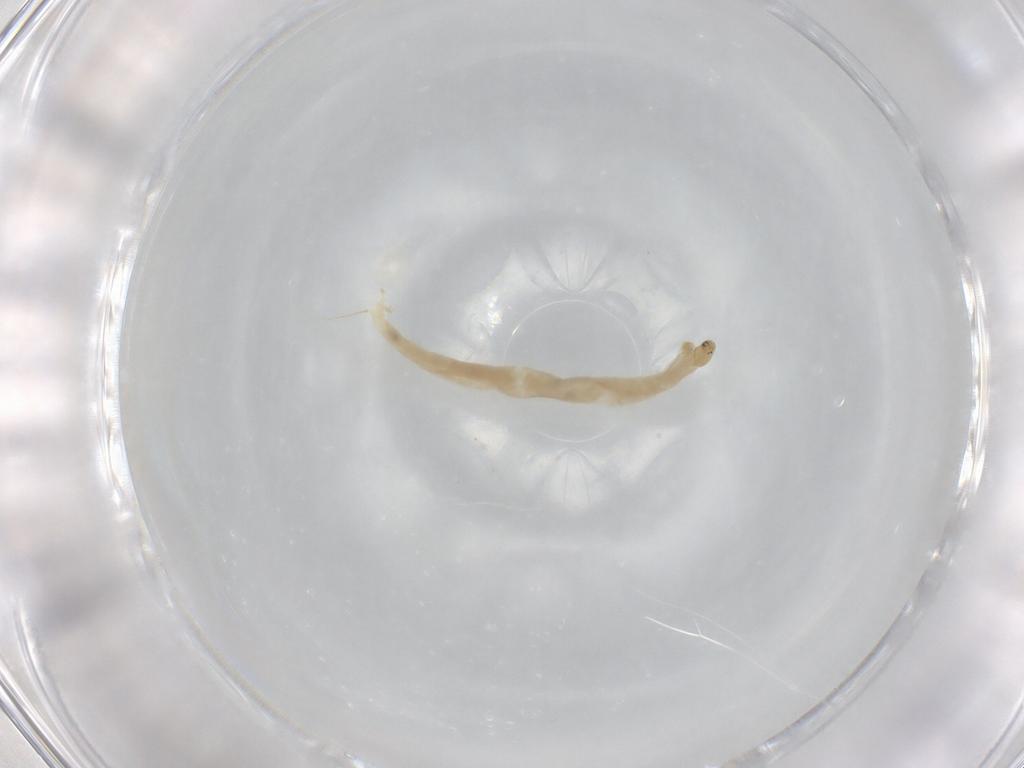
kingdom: Animalia
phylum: Arthropoda
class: Insecta
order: Diptera
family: Chironomidae
